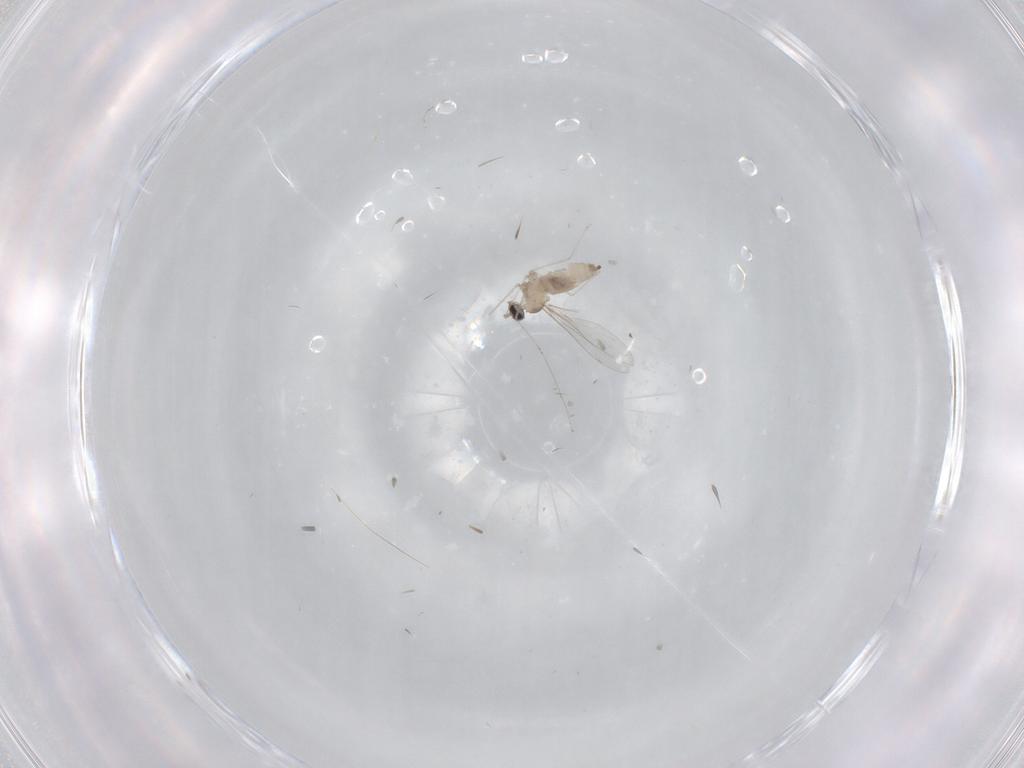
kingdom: Animalia
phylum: Arthropoda
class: Insecta
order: Diptera
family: Cecidomyiidae
